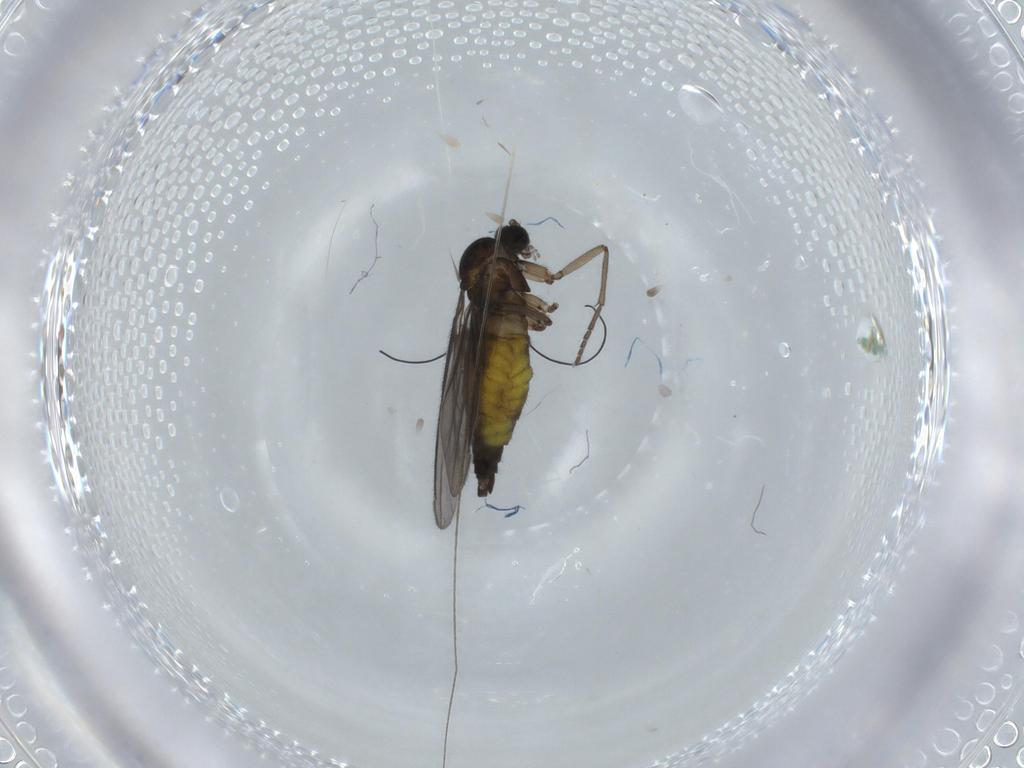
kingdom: Animalia
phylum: Arthropoda
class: Insecta
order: Diptera
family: Sciaridae
